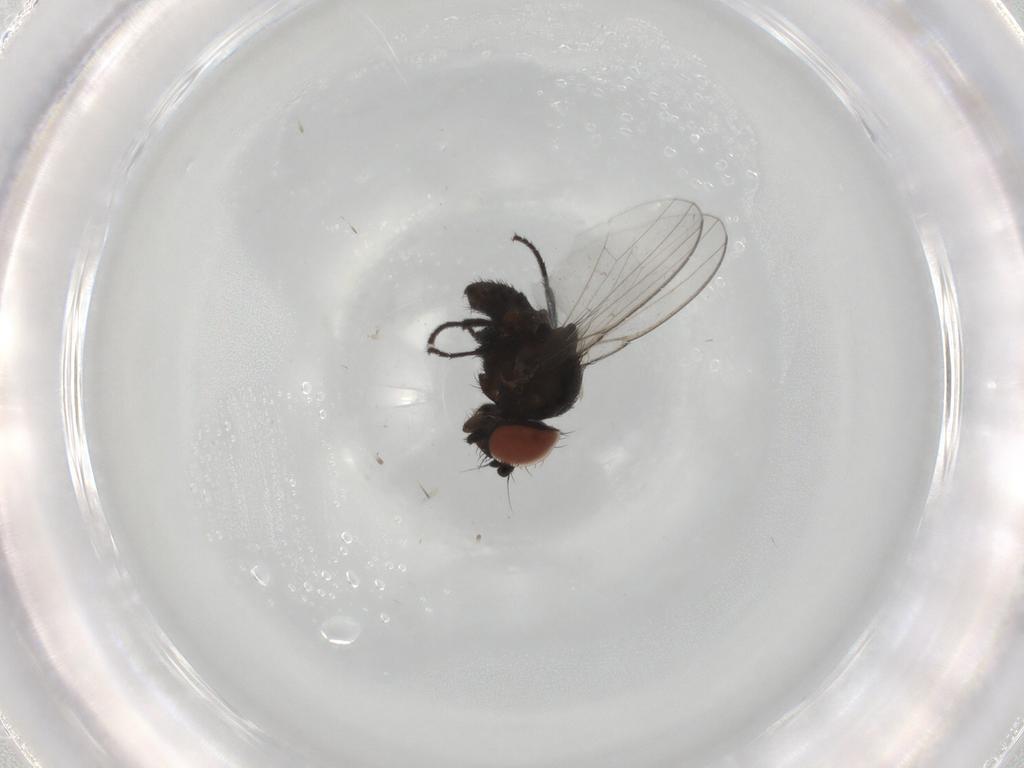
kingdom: Animalia
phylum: Arthropoda
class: Insecta
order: Diptera
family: Milichiidae
